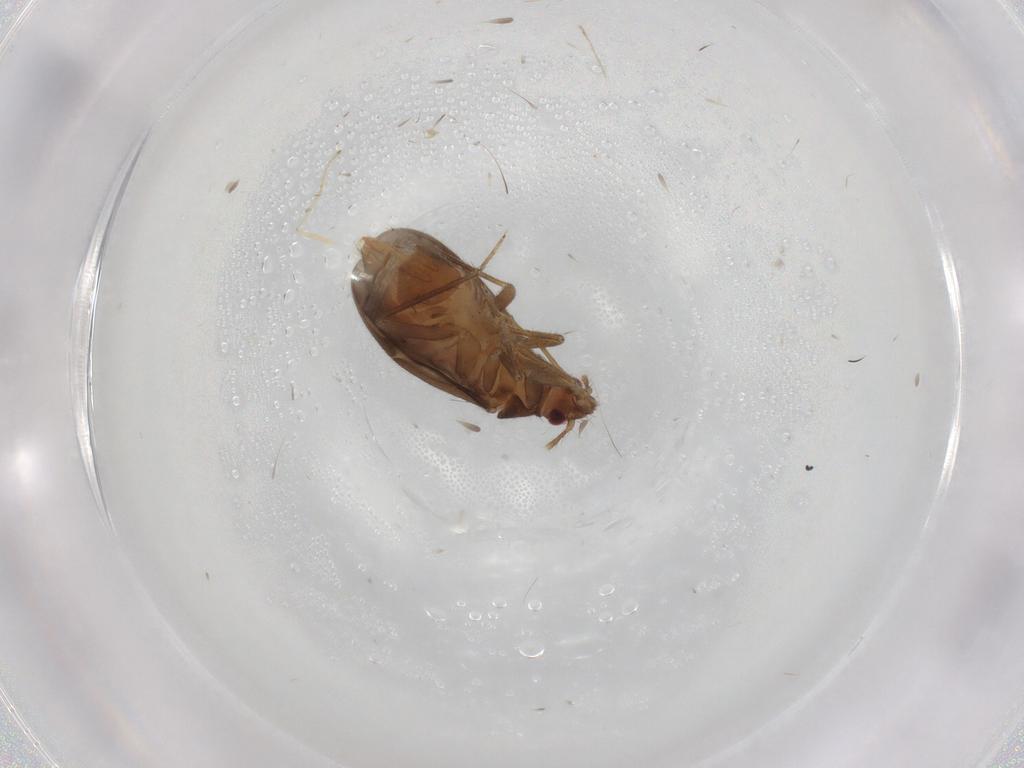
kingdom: Animalia
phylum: Arthropoda
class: Insecta
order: Hemiptera
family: Ceratocombidae
